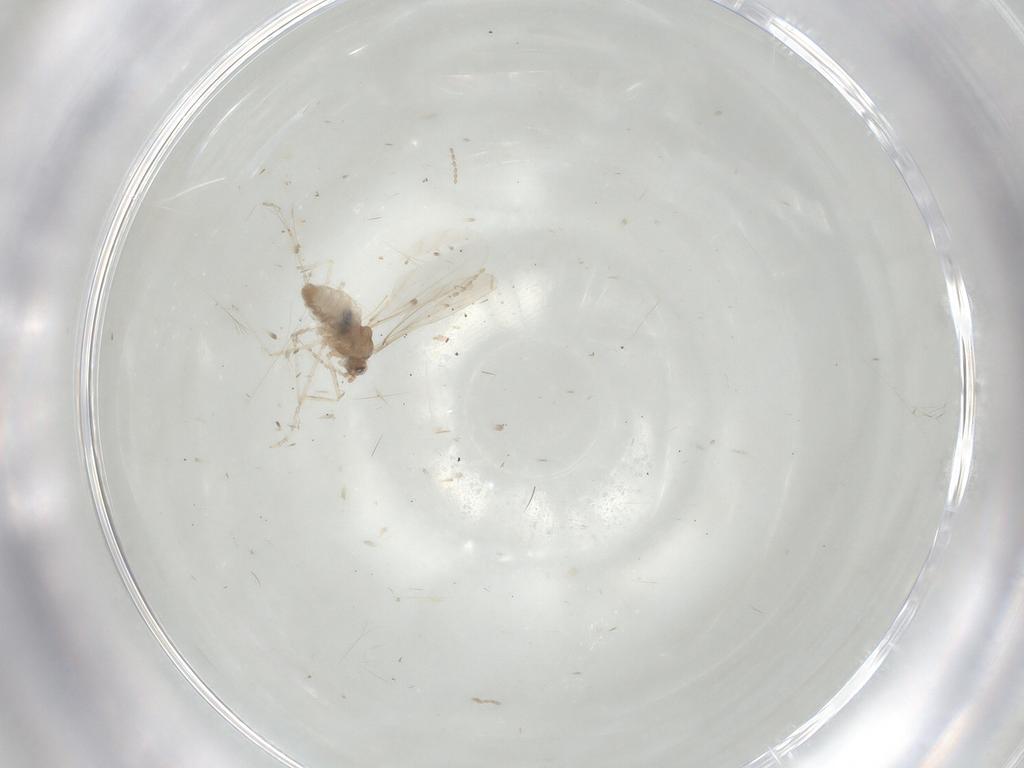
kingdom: Animalia
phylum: Arthropoda
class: Insecta
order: Diptera
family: Cecidomyiidae
